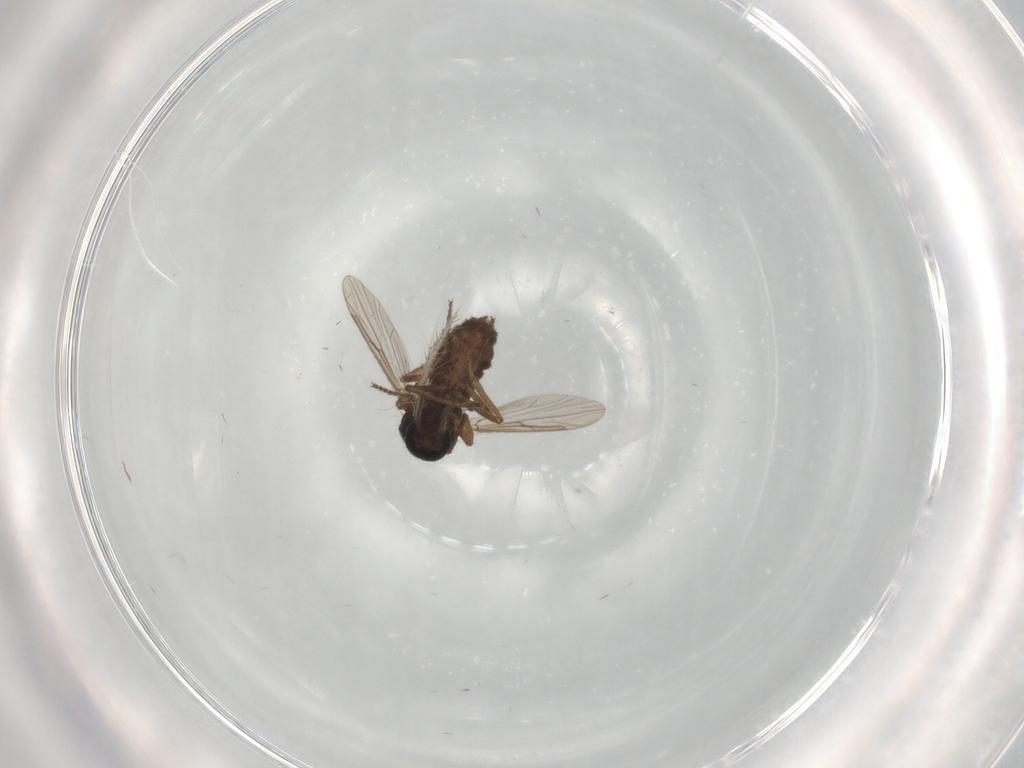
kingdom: Animalia
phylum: Arthropoda
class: Insecta
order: Diptera
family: Ceratopogonidae
